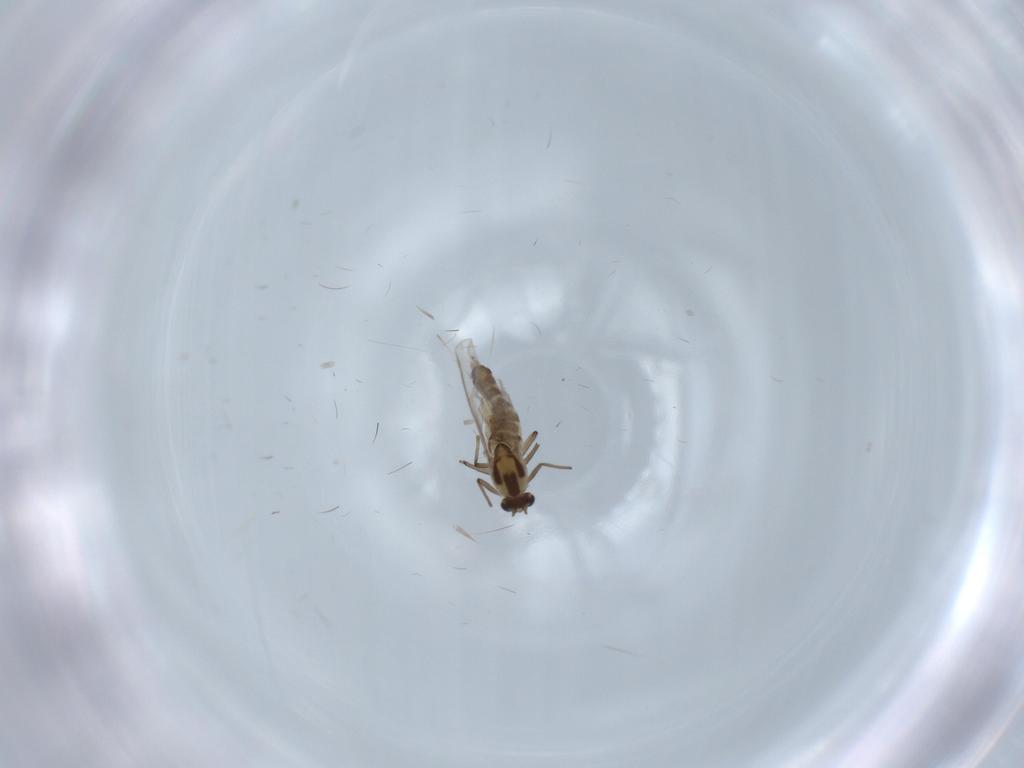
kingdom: Animalia
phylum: Arthropoda
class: Insecta
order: Diptera
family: Chironomidae
